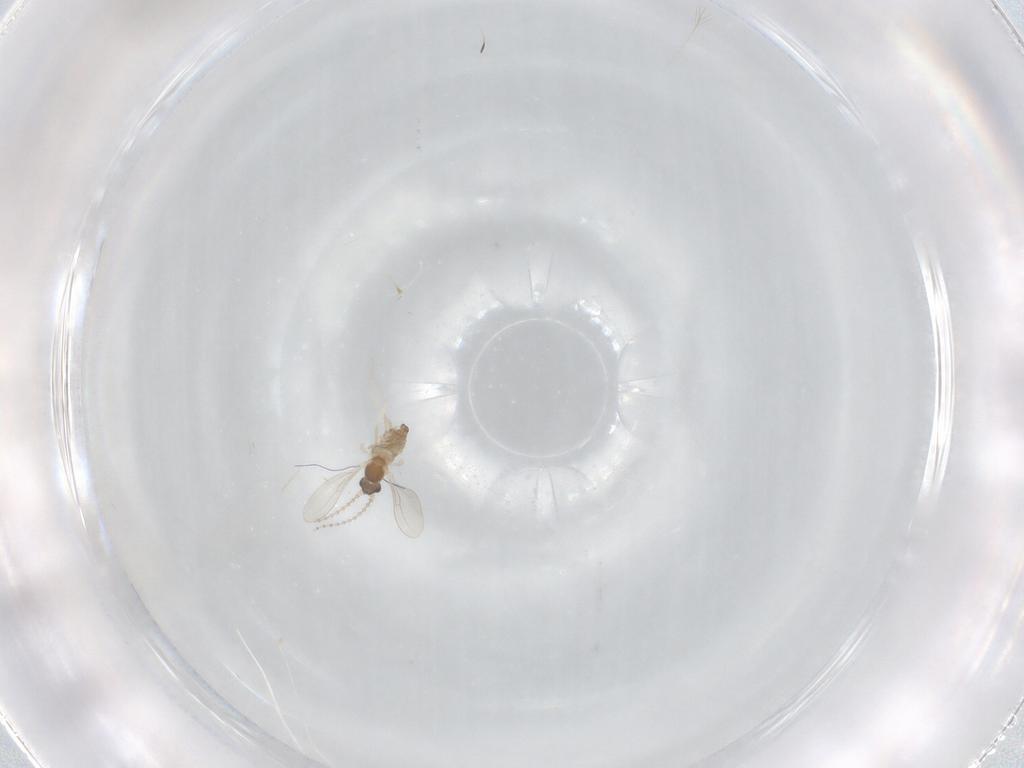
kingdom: Animalia
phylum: Arthropoda
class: Insecta
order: Diptera
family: Cecidomyiidae
